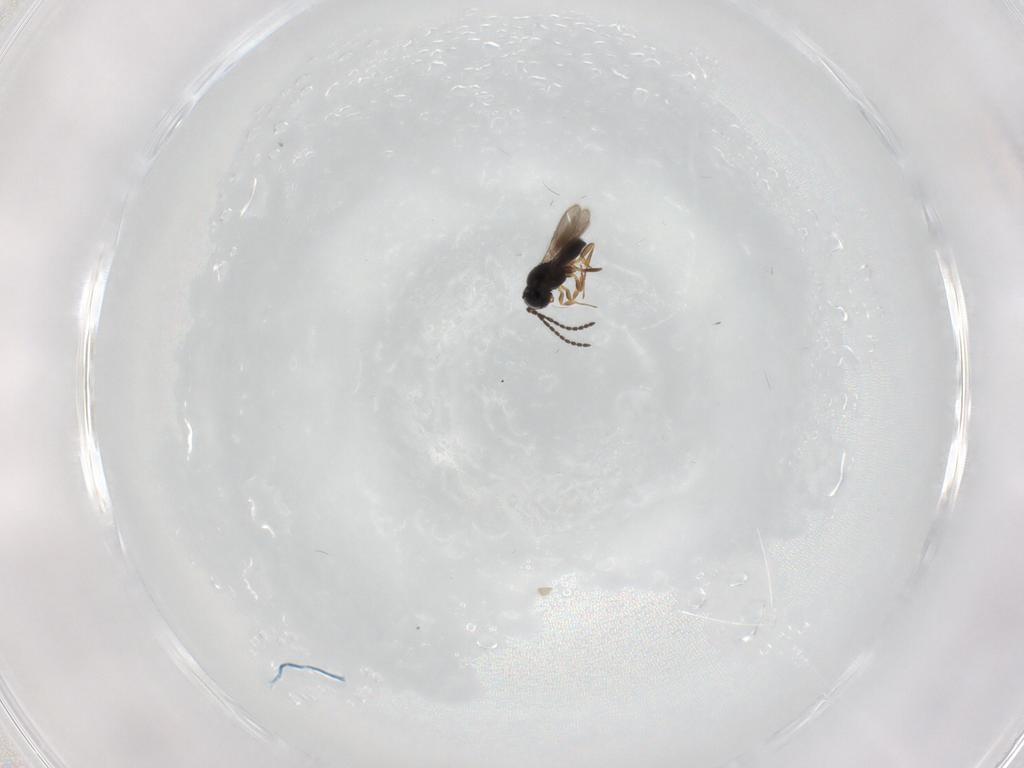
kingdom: Animalia
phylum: Arthropoda
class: Insecta
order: Hymenoptera
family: Scelionidae
